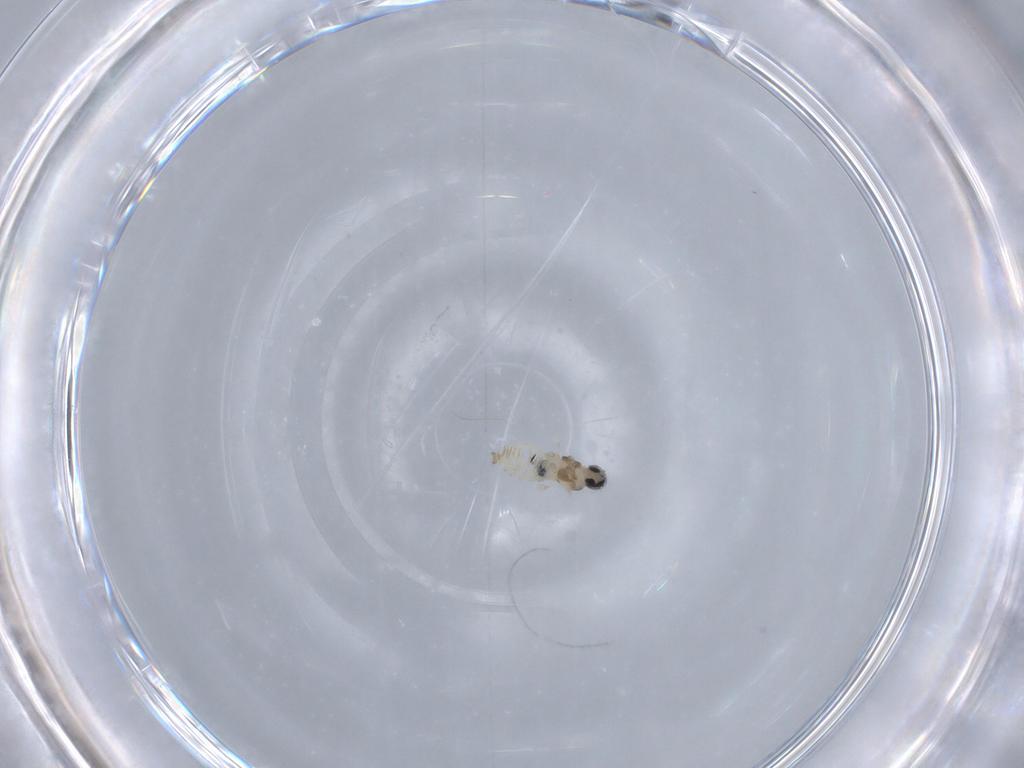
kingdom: Animalia
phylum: Arthropoda
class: Insecta
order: Diptera
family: Cecidomyiidae
